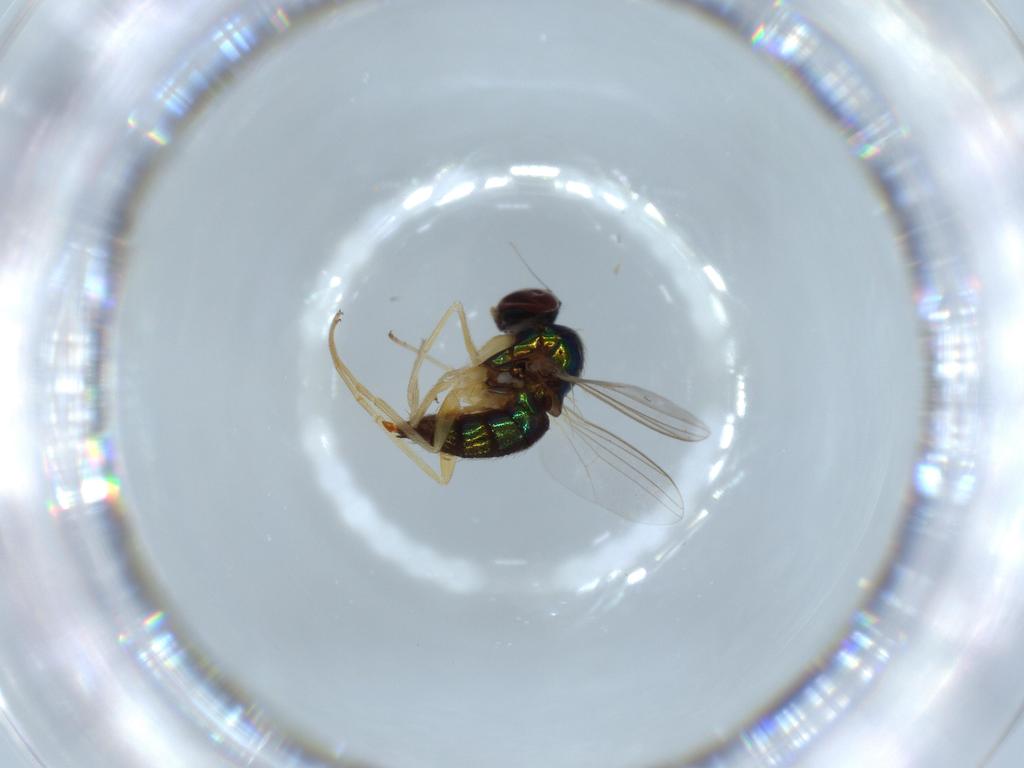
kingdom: Animalia
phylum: Arthropoda
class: Insecta
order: Diptera
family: Dolichopodidae
